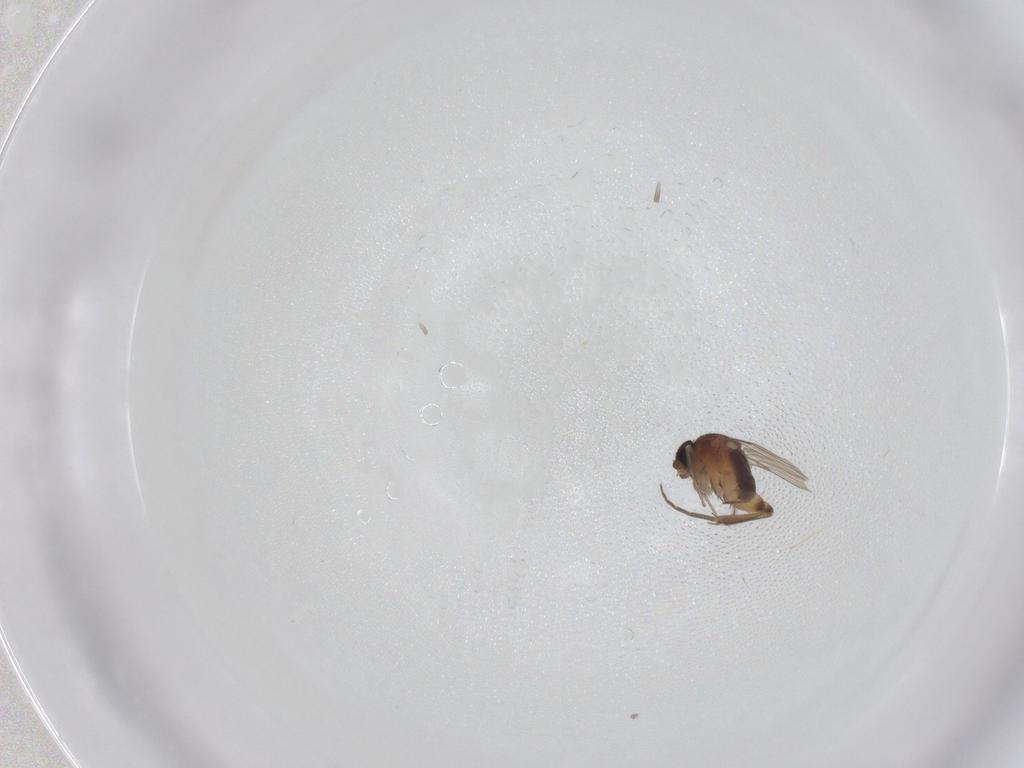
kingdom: Animalia
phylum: Arthropoda
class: Insecta
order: Diptera
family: Phoridae
